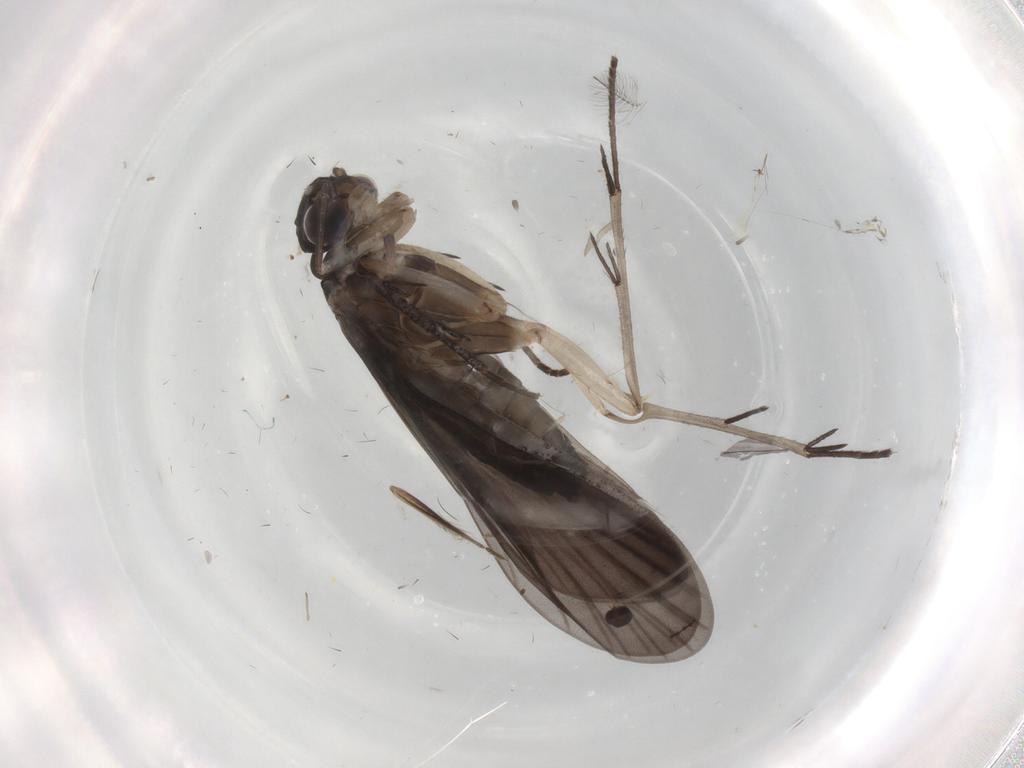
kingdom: Animalia
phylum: Arthropoda
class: Insecta
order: Trichoptera
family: Philopotamidae
